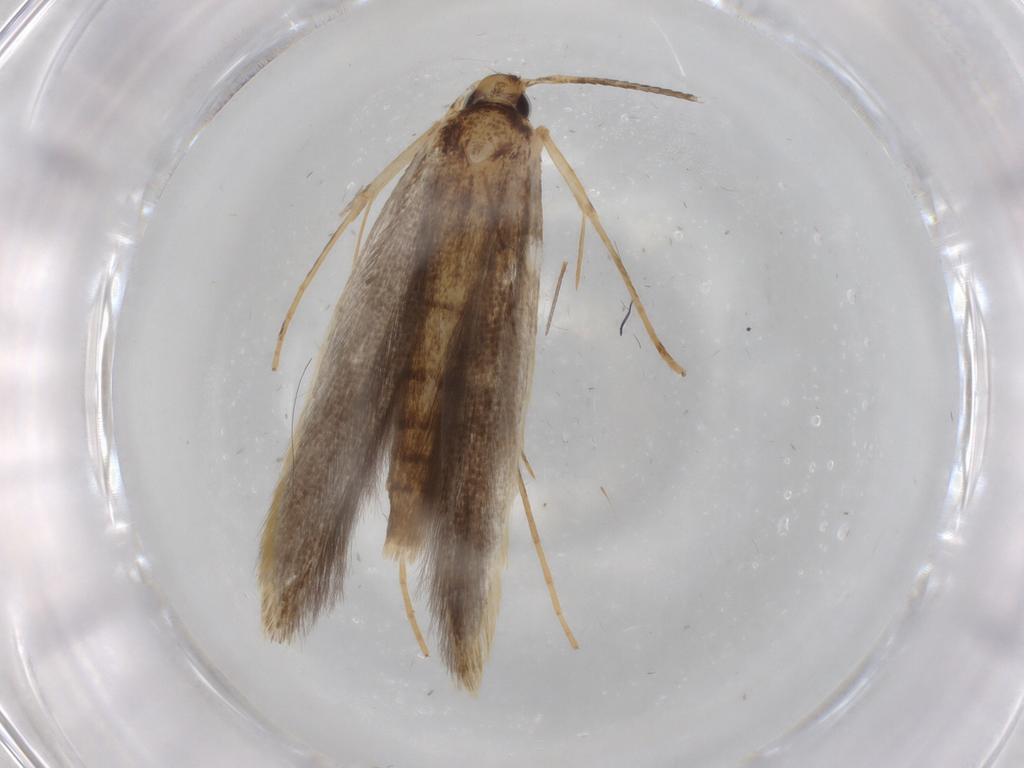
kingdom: Animalia
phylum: Arthropoda
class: Insecta
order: Lepidoptera
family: Pterolonchidae
